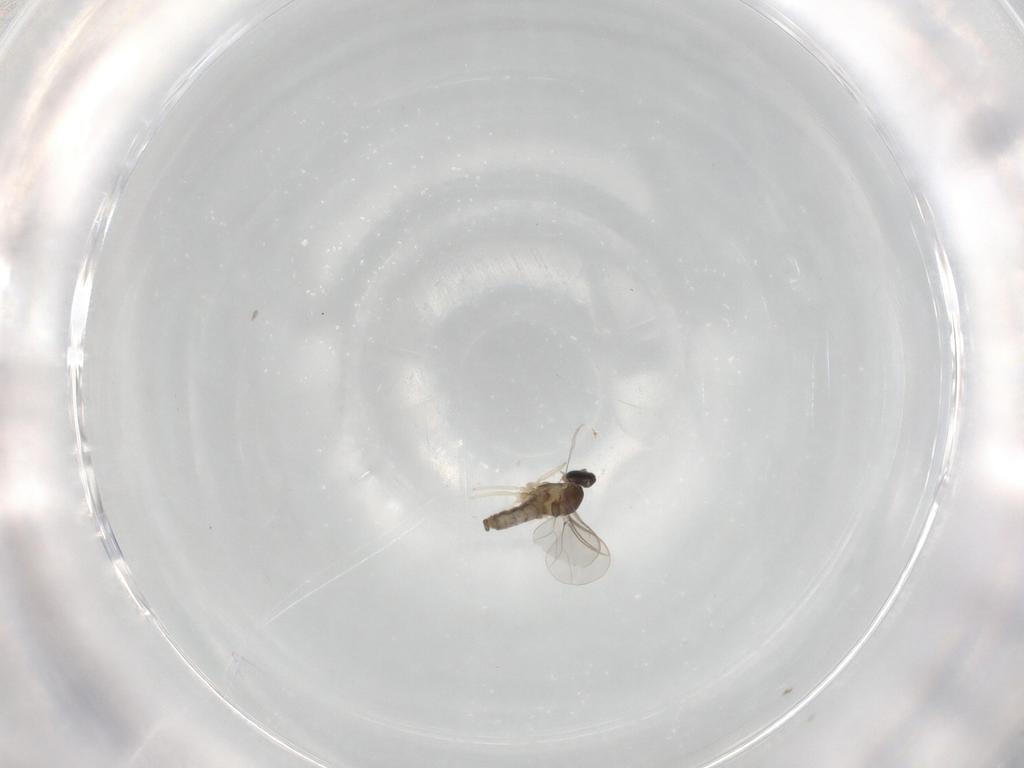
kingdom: Animalia
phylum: Arthropoda
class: Insecta
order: Diptera
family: Cecidomyiidae
